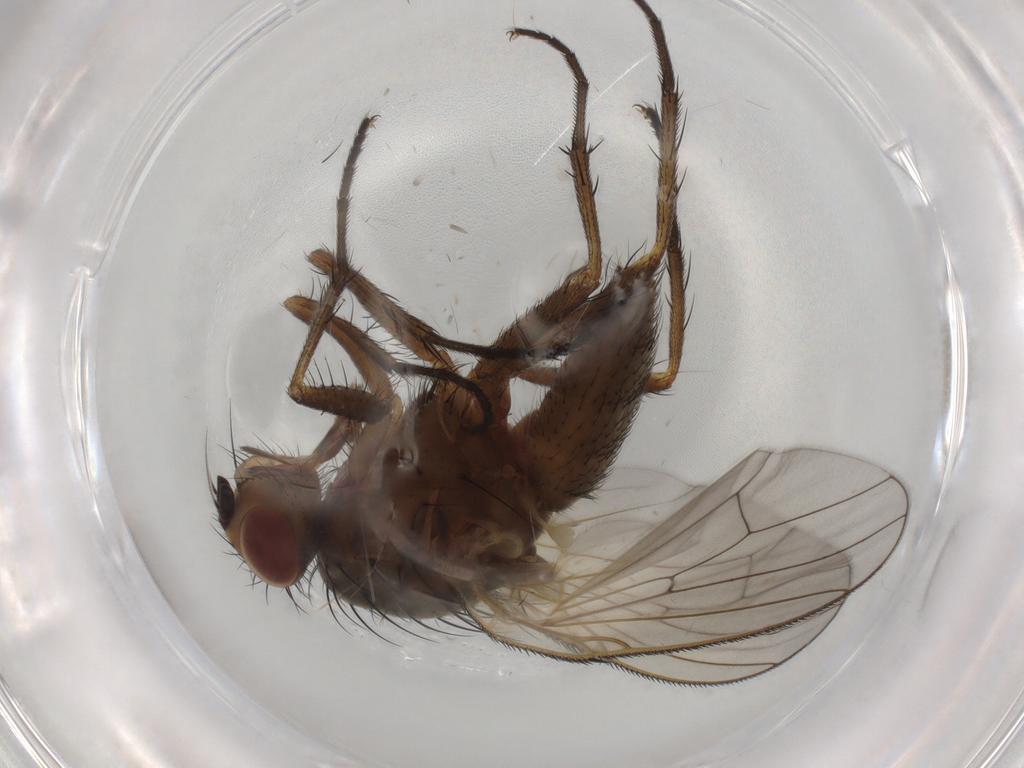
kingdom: Animalia
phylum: Arthropoda
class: Insecta
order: Diptera
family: Anthomyiidae
